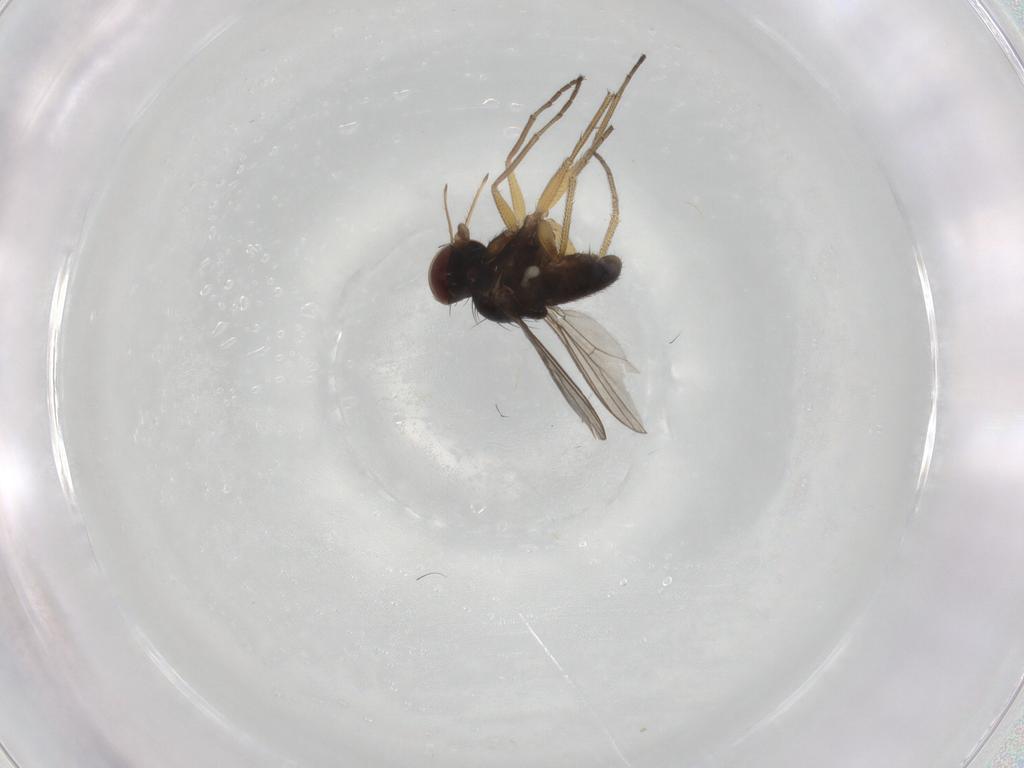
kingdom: Animalia
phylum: Arthropoda
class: Insecta
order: Diptera
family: Dolichopodidae
